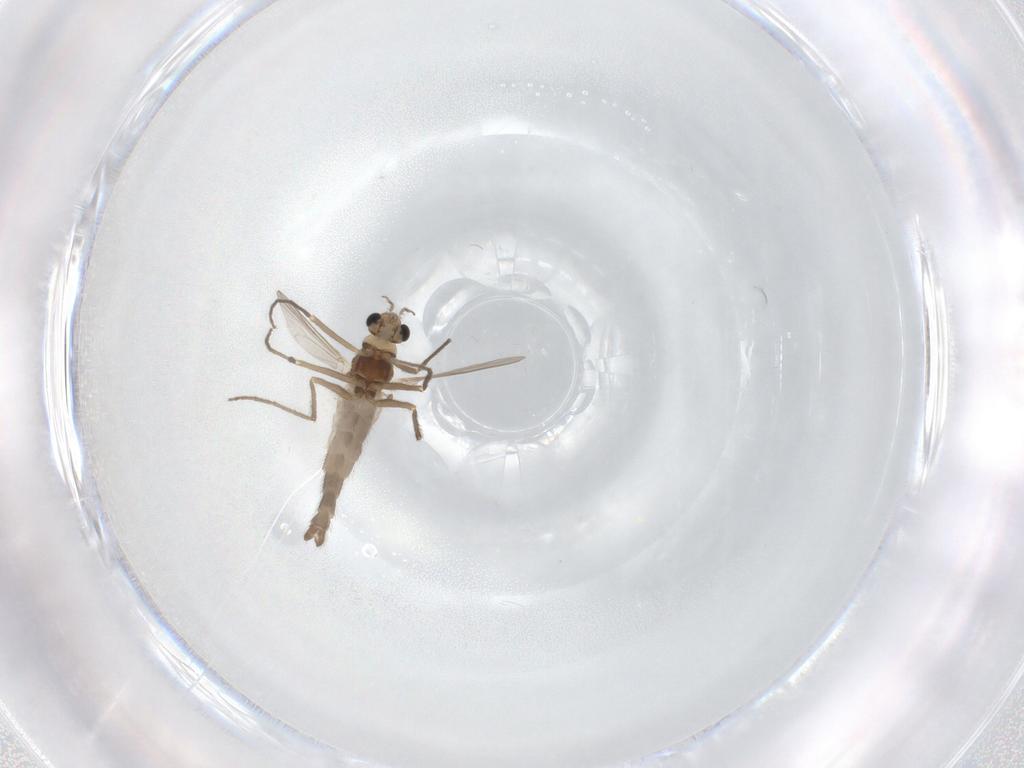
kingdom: Animalia
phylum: Arthropoda
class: Insecta
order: Diptera
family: Chironomidae
